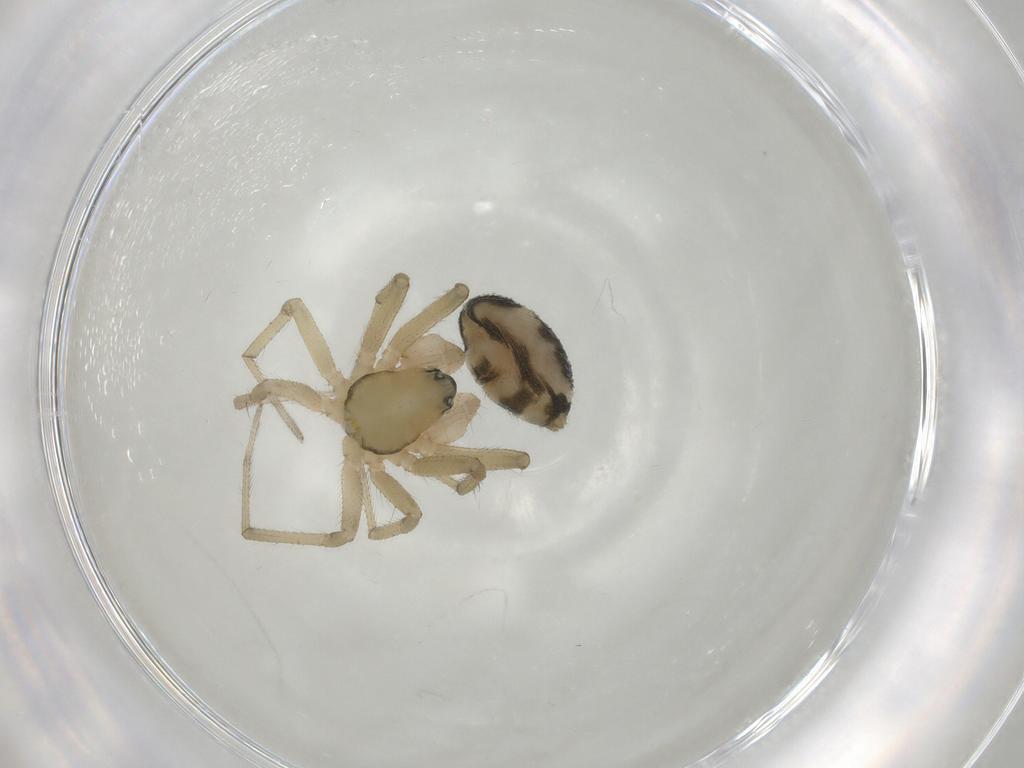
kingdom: Animalia
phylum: Arthropoda
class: Arachnida
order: Araneae
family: Linyphiidae
